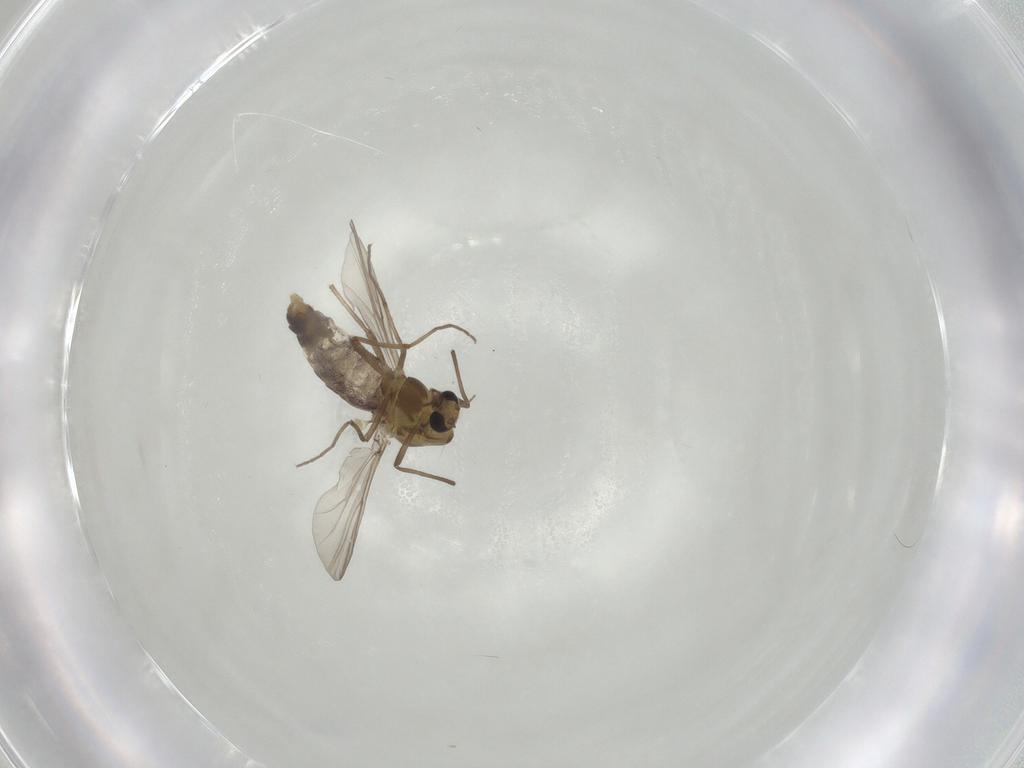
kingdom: Animalia
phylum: Arthropoda
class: Insecta
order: Diptera
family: Chironomidae
